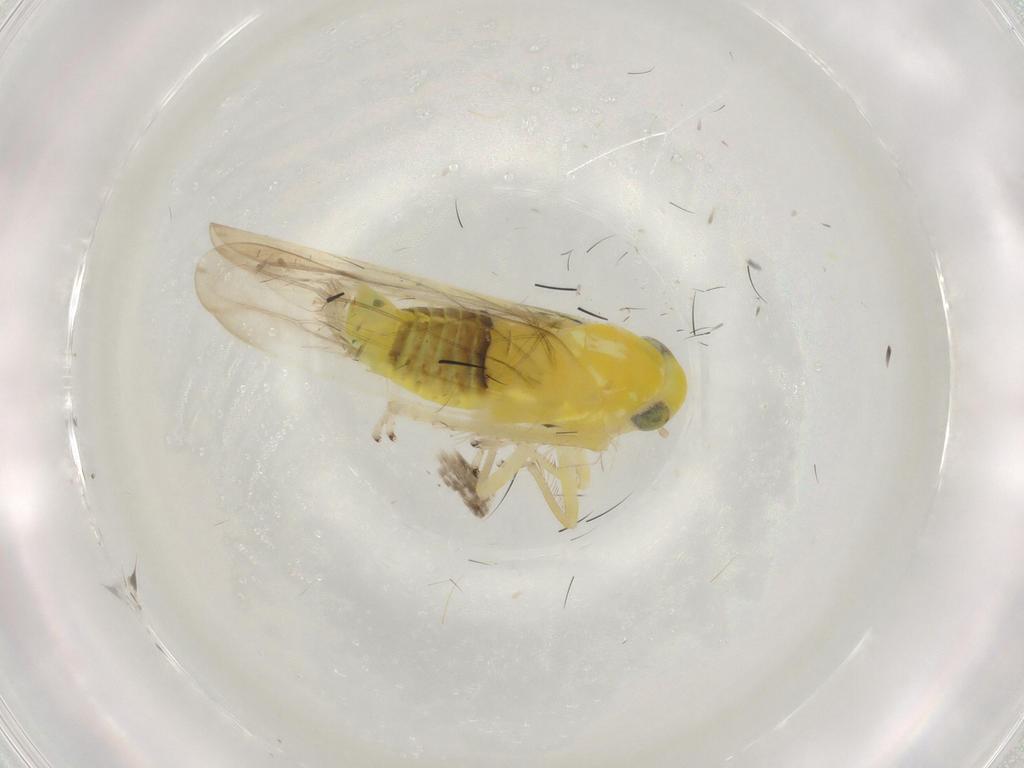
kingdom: Animalia
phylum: Arthropoda
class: Insecta
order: Hemiptera
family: Cicadellidae
